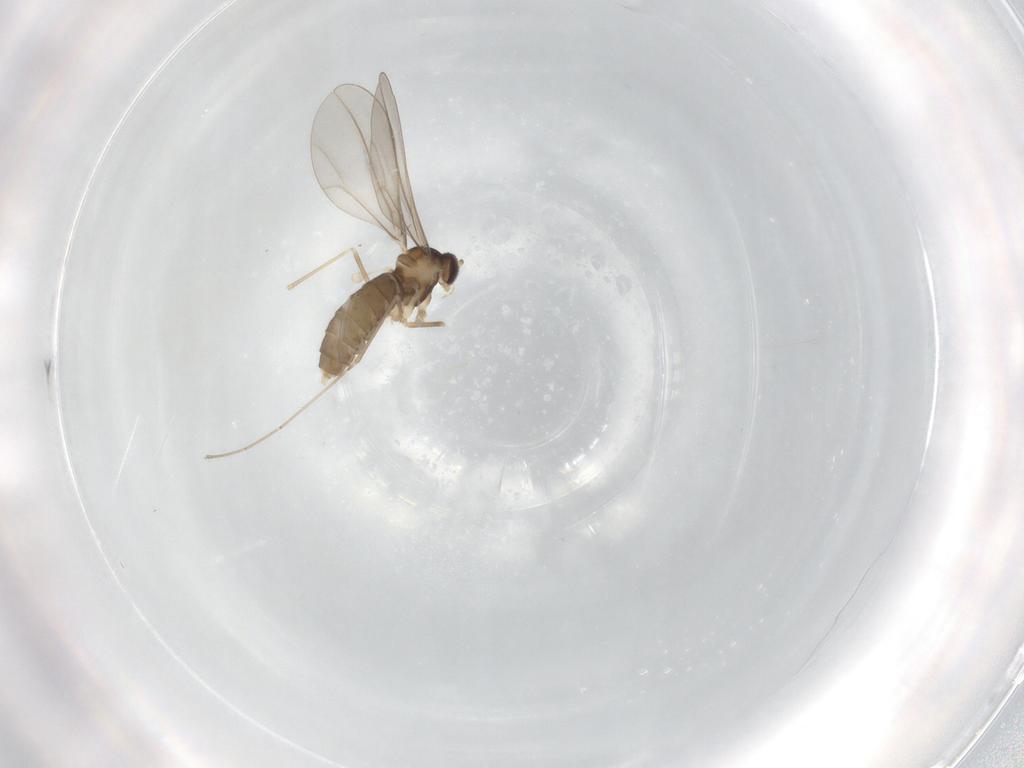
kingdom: Animalia
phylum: Arthropoda
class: Insecta
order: Diptera
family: Cecidomyiidae
